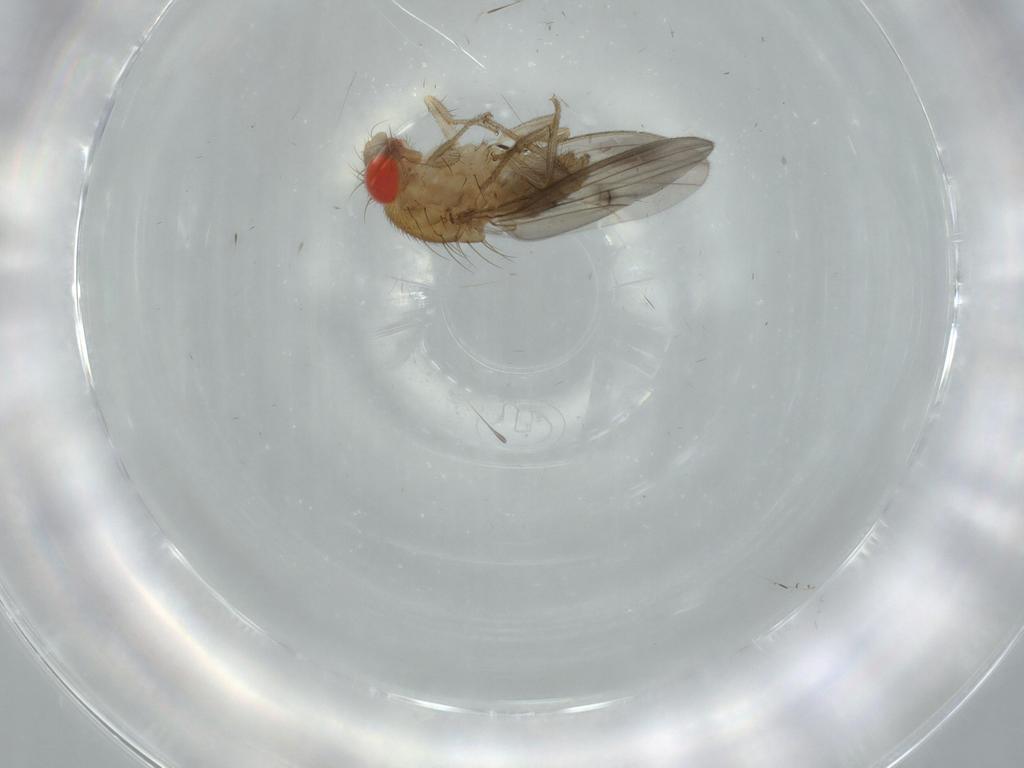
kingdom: Animalia
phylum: Arthropoda
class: Insecta
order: Diptera
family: Drosophilidae
